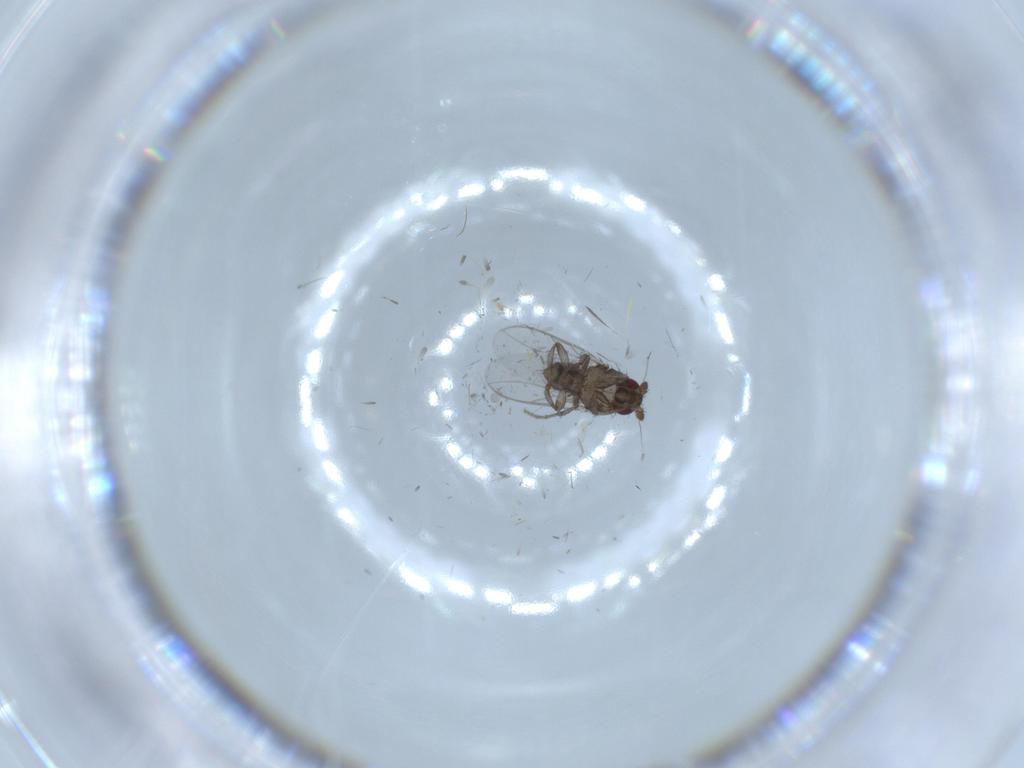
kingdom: Animalia
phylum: Arthropoda
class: Insecta
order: Diptera
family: Sphaeroceridae
